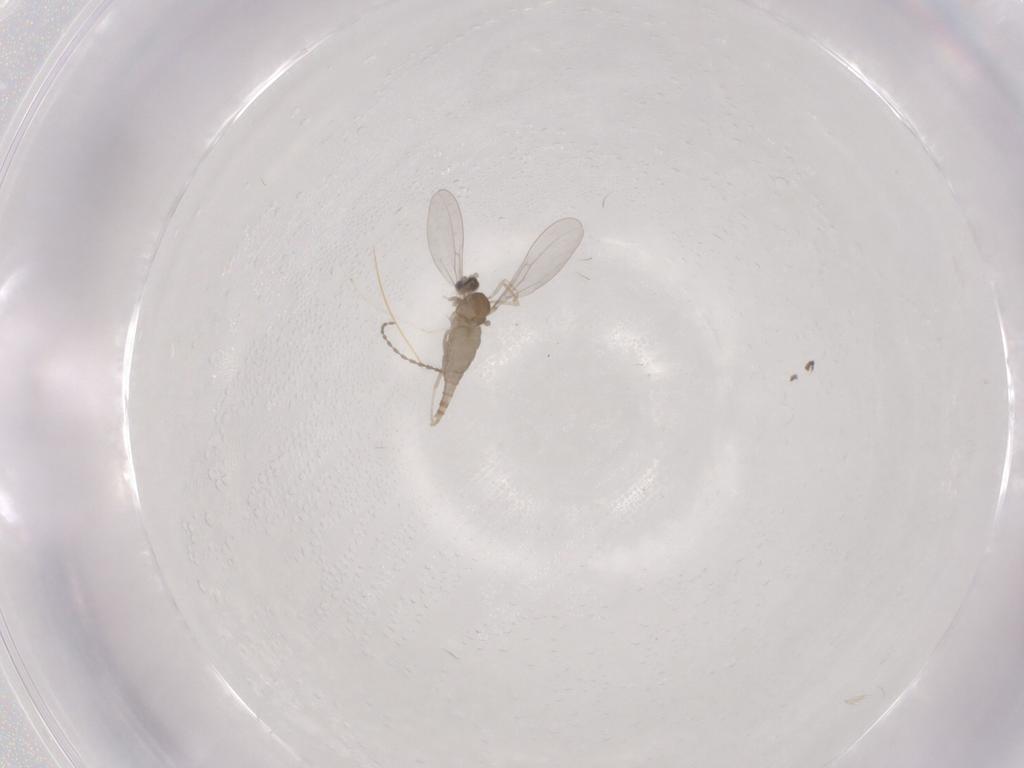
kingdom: Animalia
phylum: Arthropoda
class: Insecta
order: Diptera
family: Cecidomyiidae
